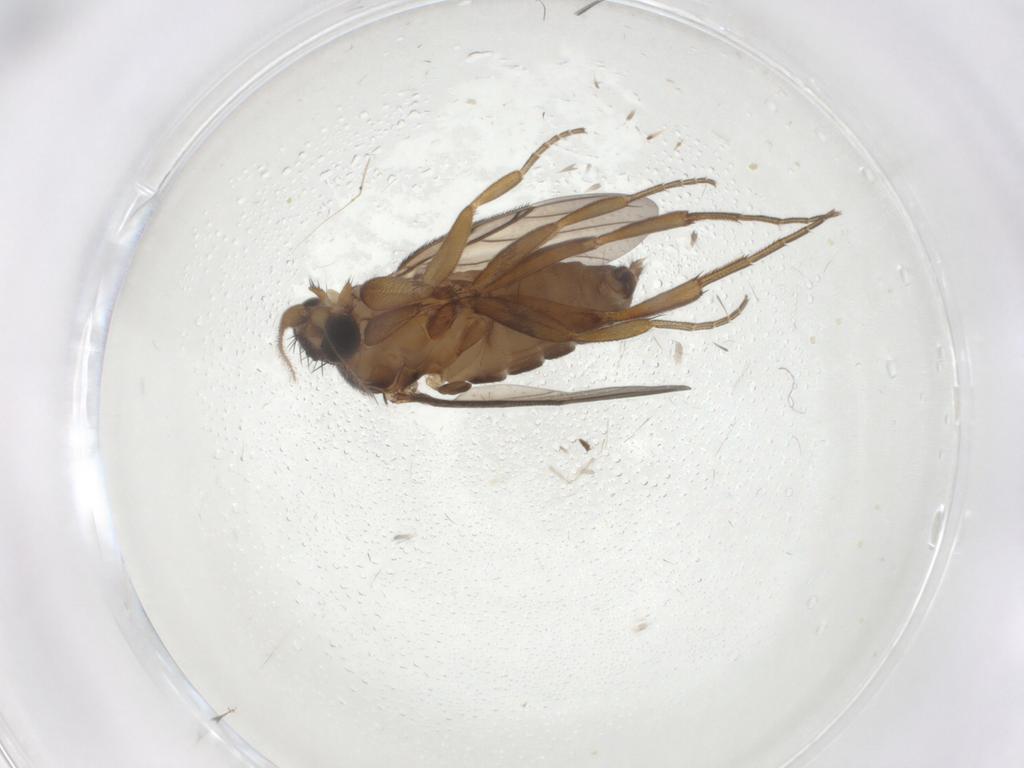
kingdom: Animalia
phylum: Arthropoda
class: Insecta
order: Diptera
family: Phoridae
